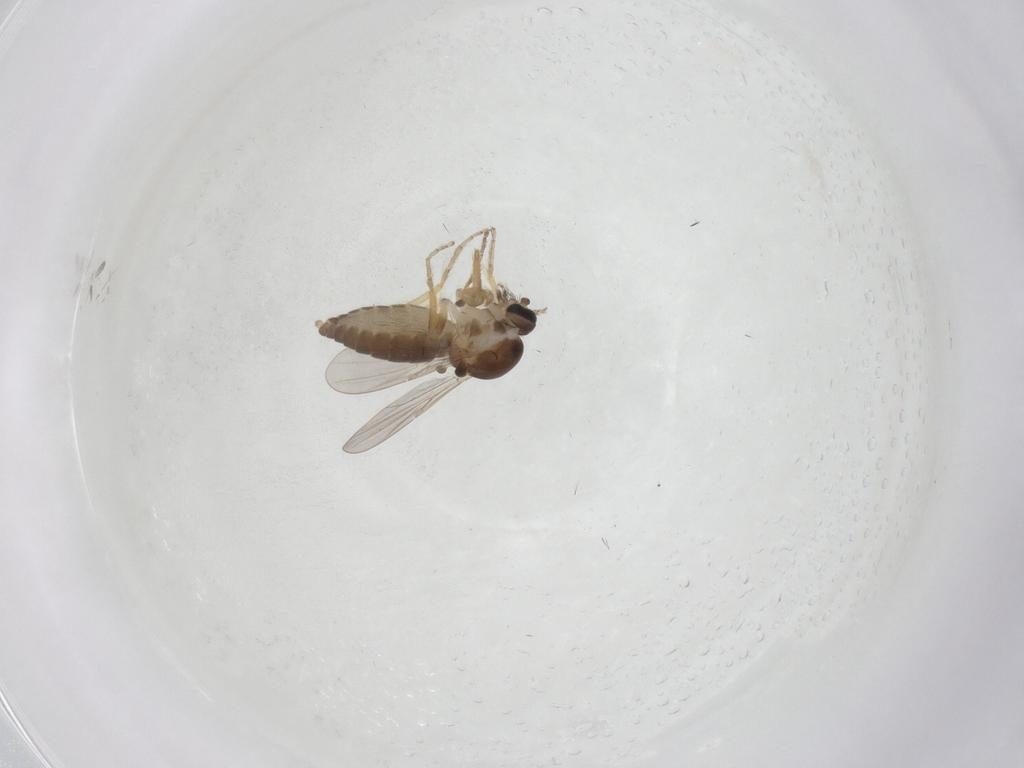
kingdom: Animalia
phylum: Arthropoda
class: Insecta
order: Diptera
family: Ceratopogonidae
